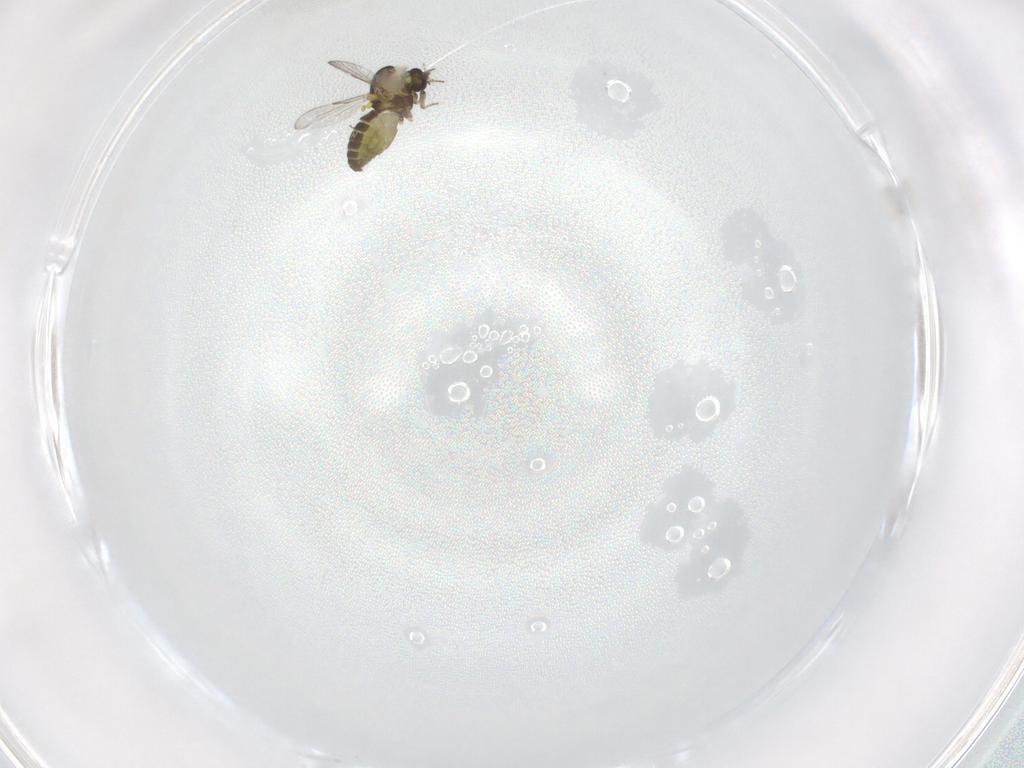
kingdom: Animalia
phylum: Arthropoda
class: Insecta
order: Diptera
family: Ceratopogonidae
